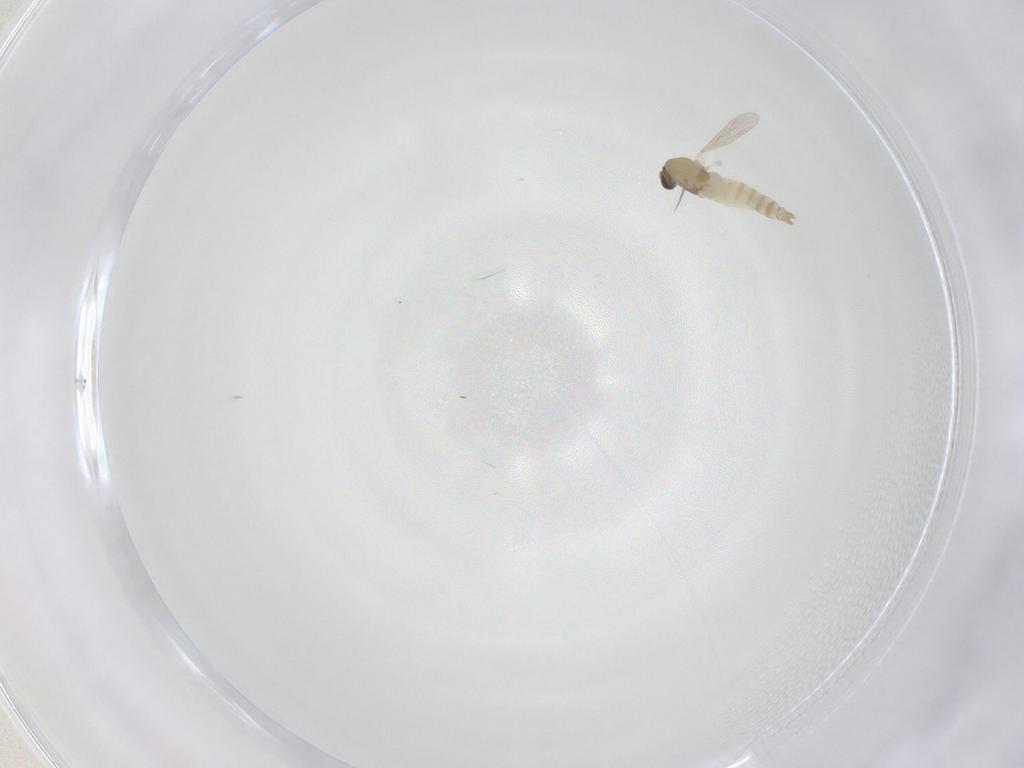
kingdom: Animalia
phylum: Arthropoda
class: Insecta
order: Diptera
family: Chironomidae
